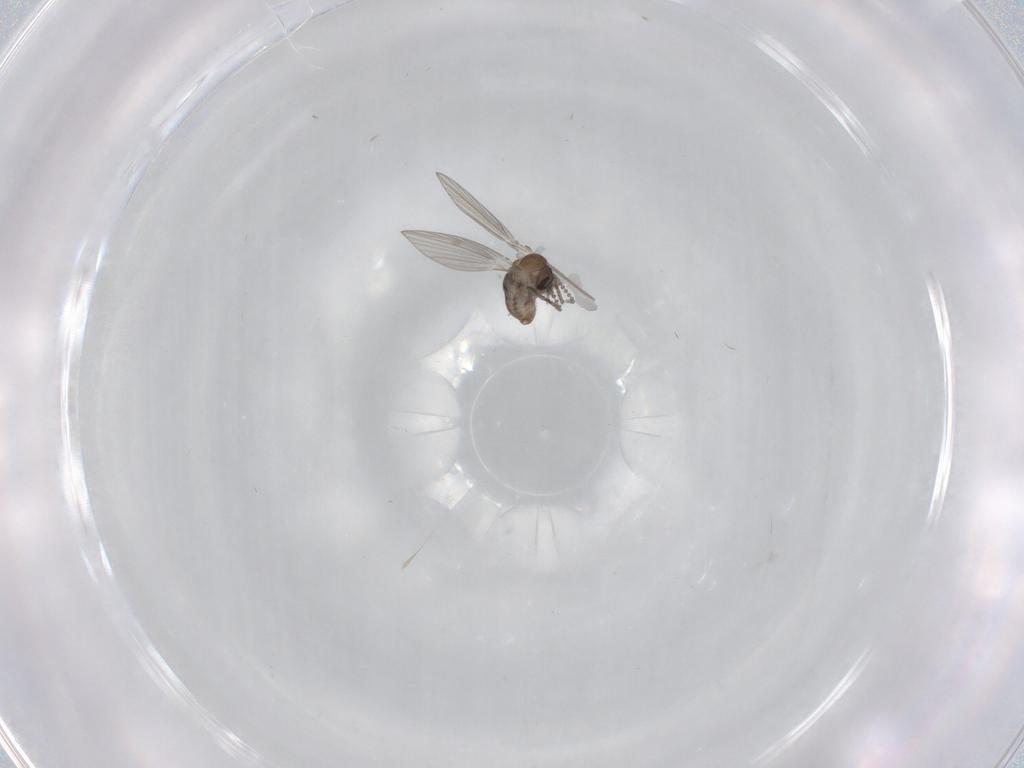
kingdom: Animalia
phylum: Arthropoda
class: Insecta
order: Diptera
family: Psychodidae
